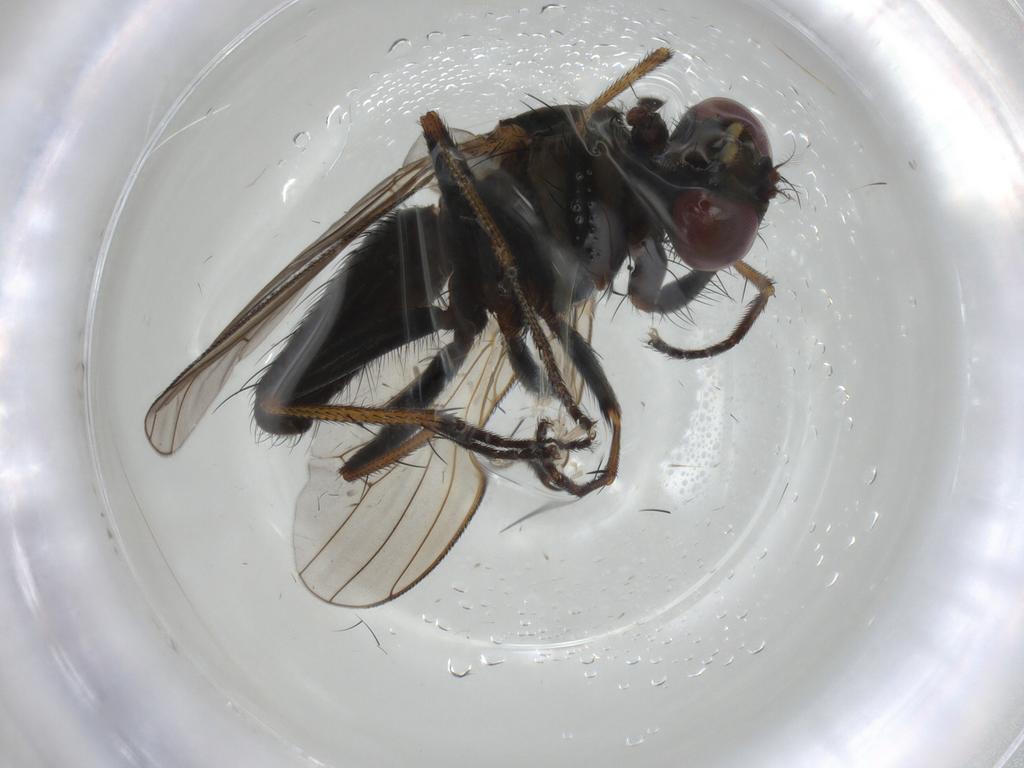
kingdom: Animalia
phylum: Arthropoda
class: Insecta
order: Diptera
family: Muscidae
